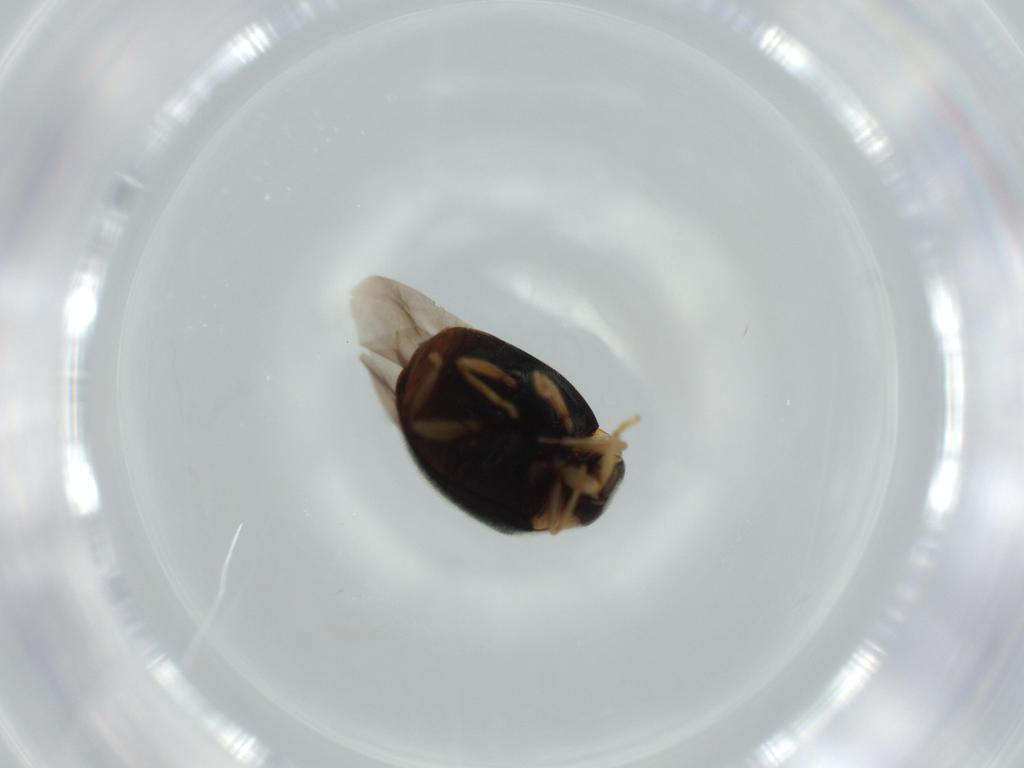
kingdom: Animalia
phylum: Arthropoda
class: Insecta
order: Coleoptera
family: Coccinellidae
